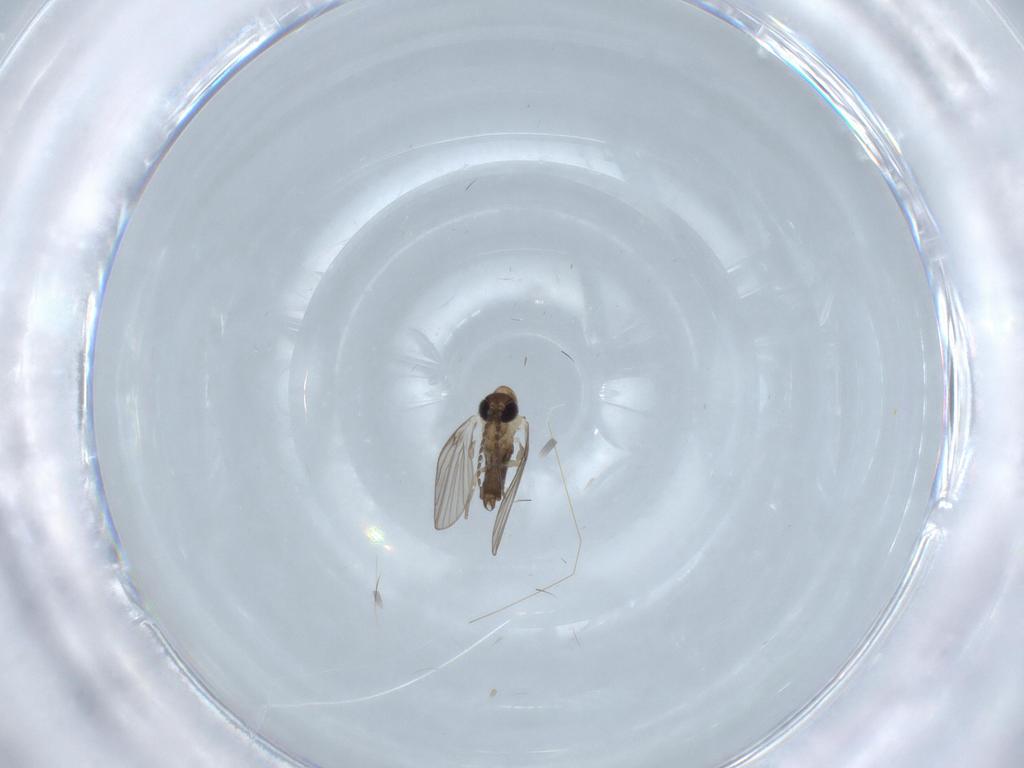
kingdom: Animalia
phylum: Arthropoda
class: Insecta
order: Diptera
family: Psychodidae
